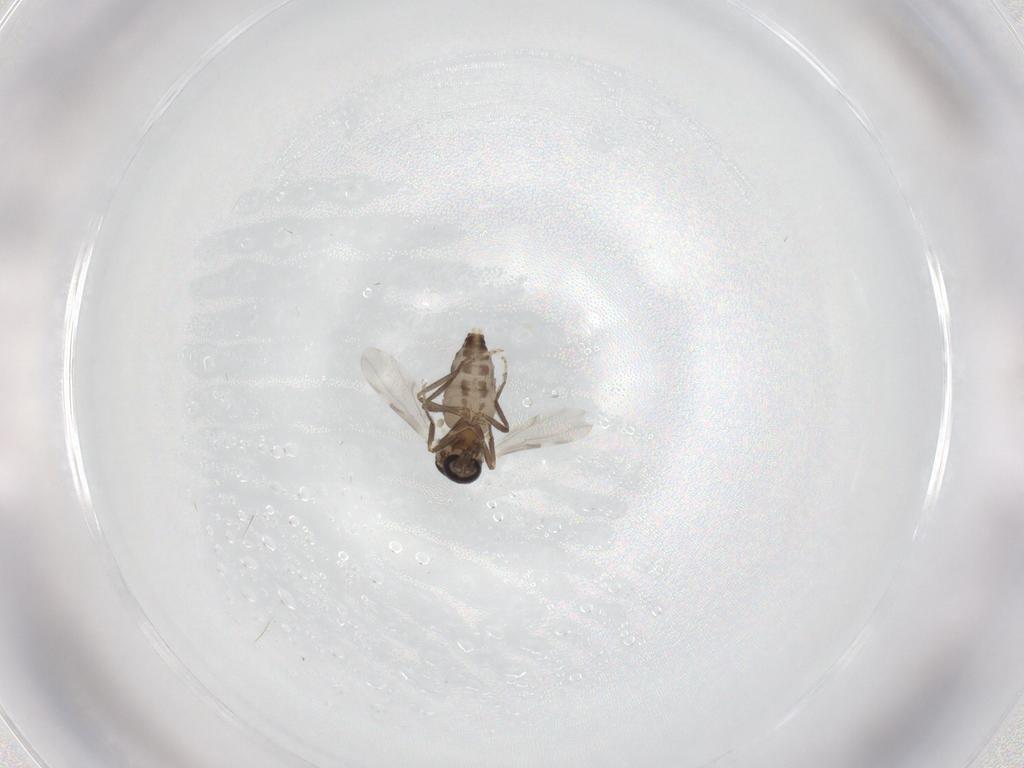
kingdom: Animalia
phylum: Arthropoda
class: Insecta
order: Diptera
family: Ceratopogonidae
